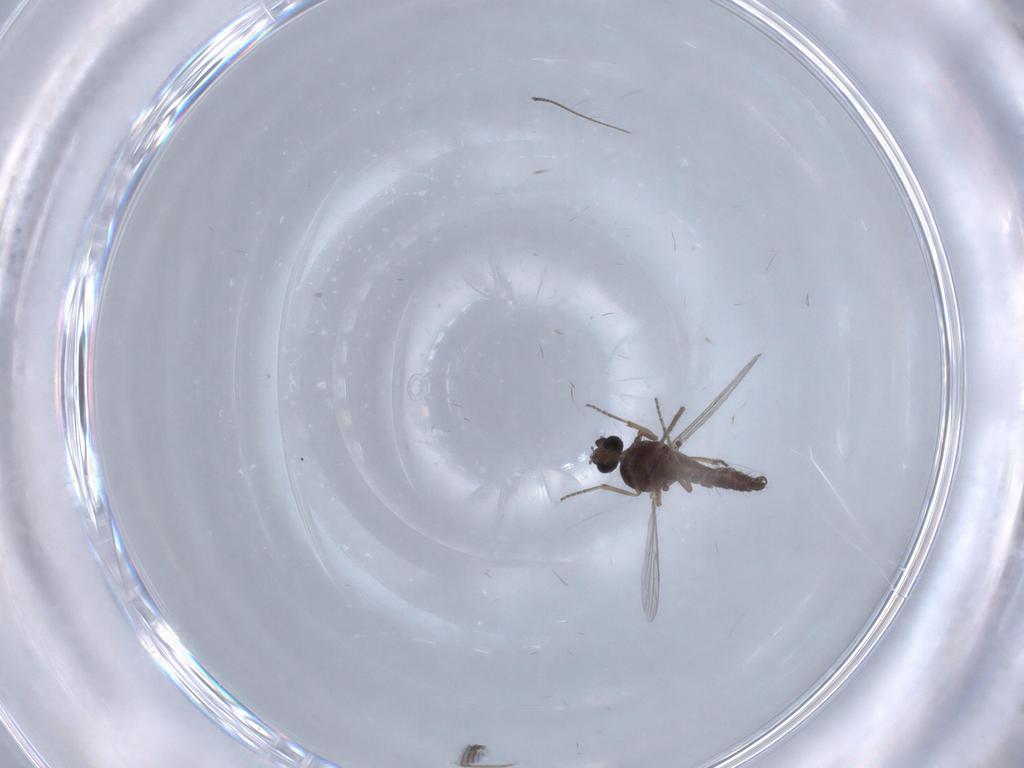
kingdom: Animalia
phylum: Arthropoda
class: Insecta
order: Diptera
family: Ceratopogonidae
